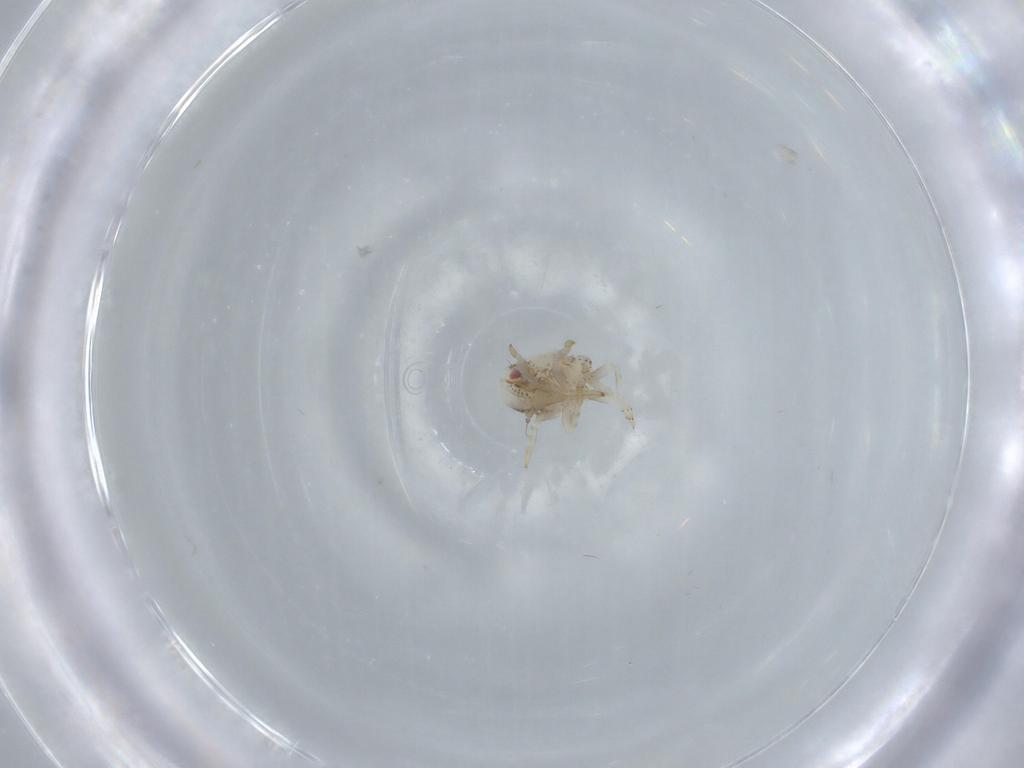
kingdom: Animalia
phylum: Arthropoda
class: Insecta
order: Hemiptera
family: Acanaloniidae
